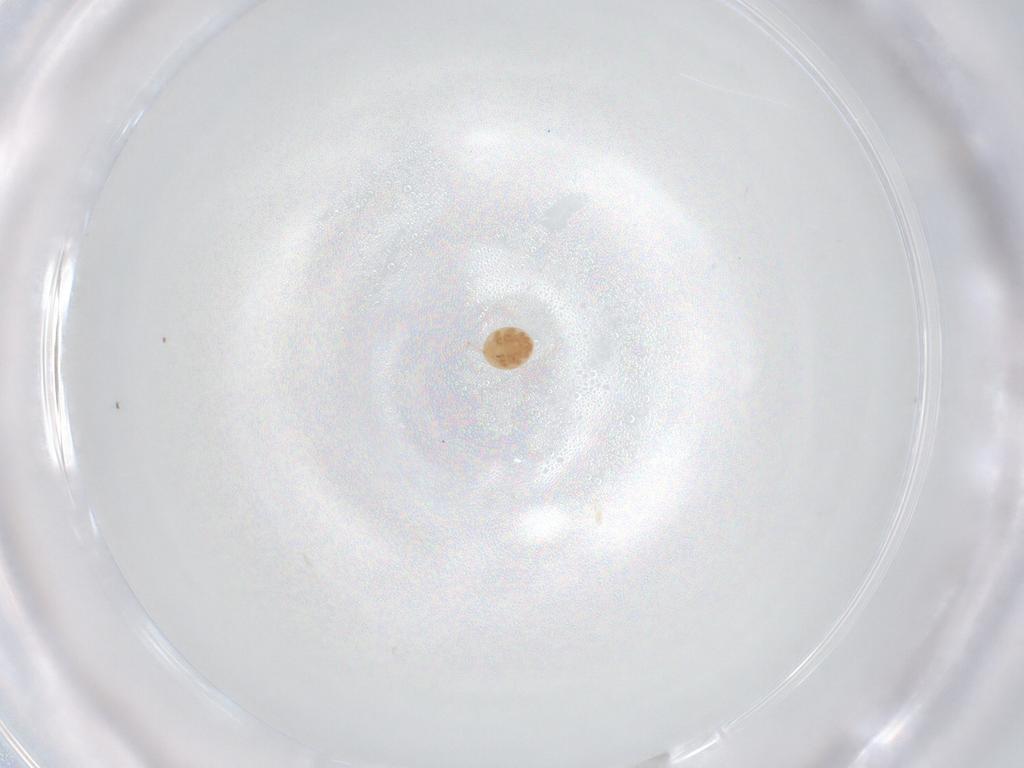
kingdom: Animalia
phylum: Arthropoda
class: Arachnida
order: Mesostigmata
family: Trematuridae
